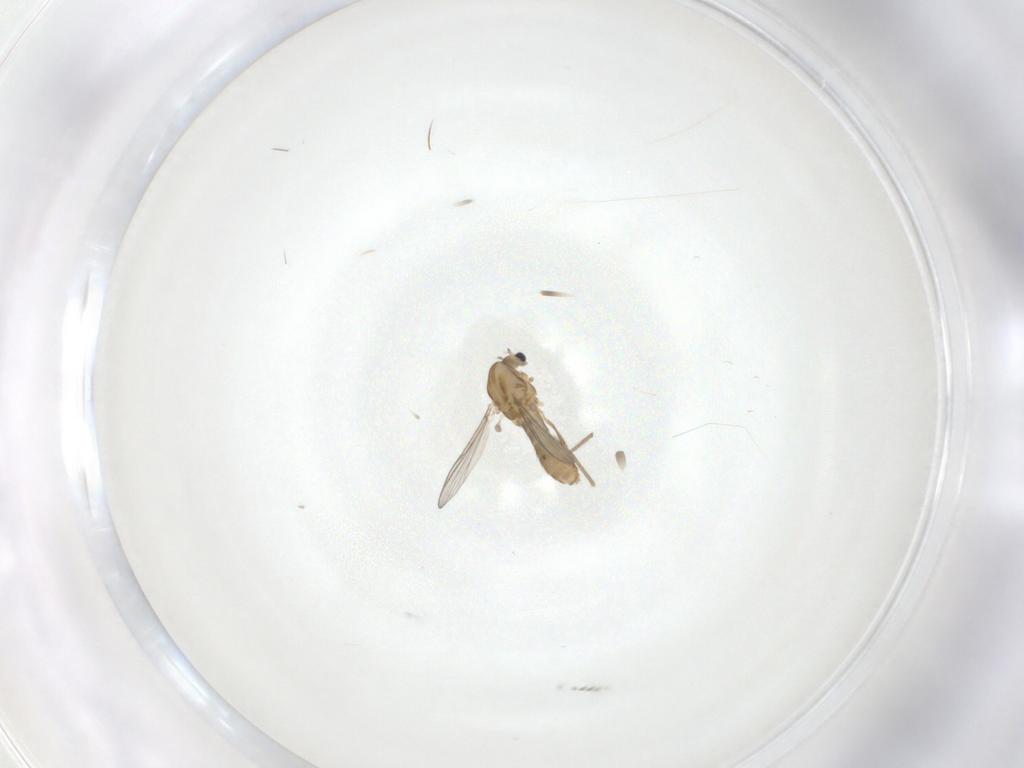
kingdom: Animalia
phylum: Arthropoda
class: Insecta
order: Diptera
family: Chironomidae
